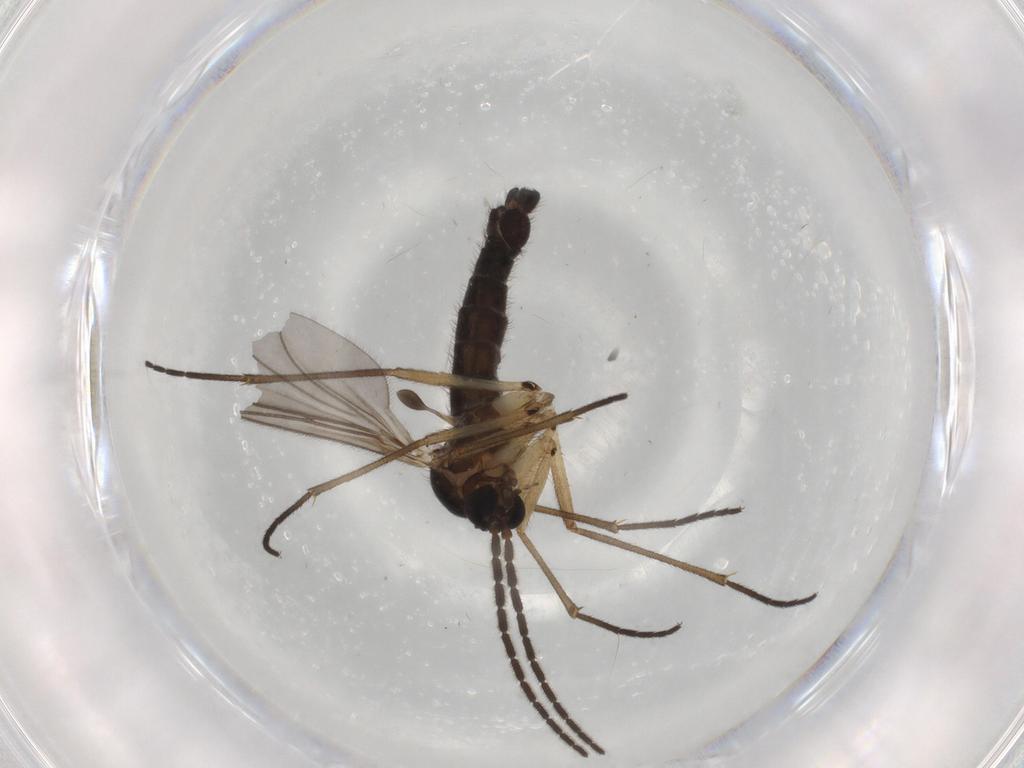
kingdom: Animalia
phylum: Arthropoda
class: Insecta
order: Diptera
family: Sciaridae
